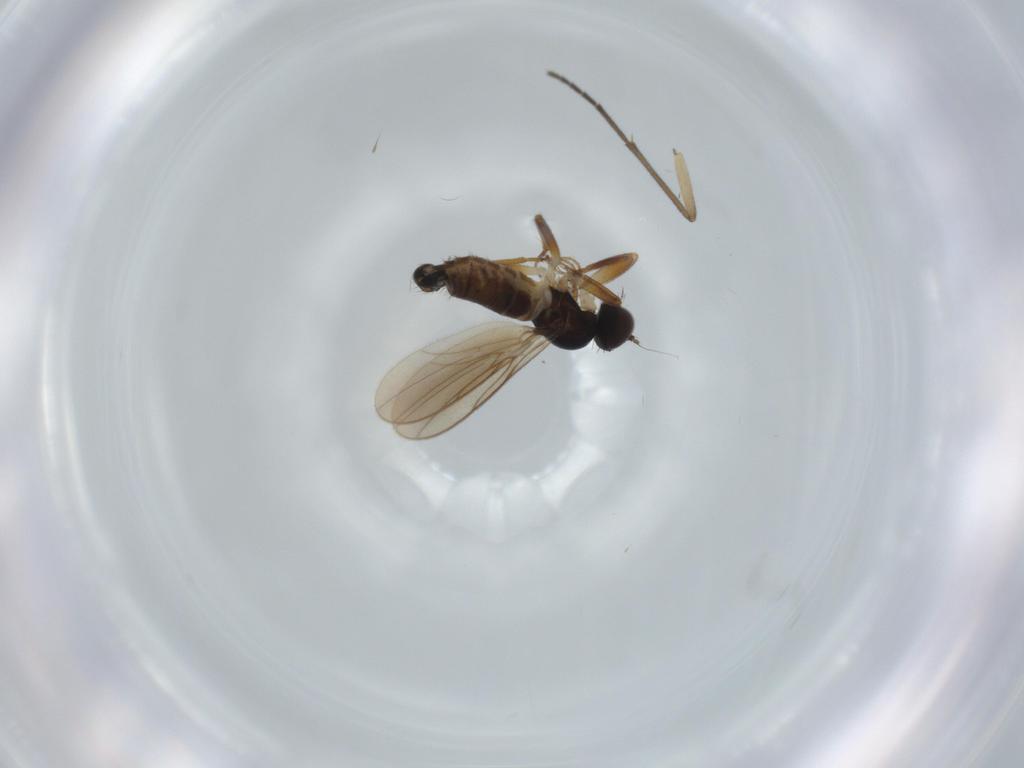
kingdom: Animalia
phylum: Arthropoda
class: Insecta
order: Diptera
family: Hybotidae
